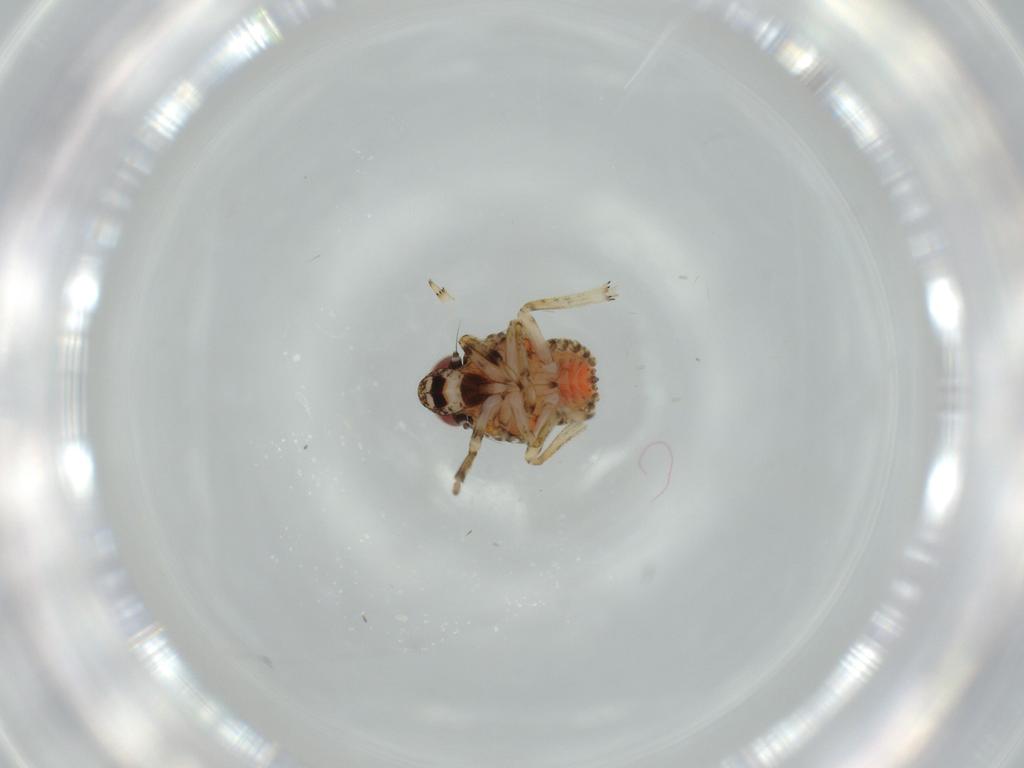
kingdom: Animalia
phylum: Arthropoda
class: Insecta
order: Hemiptera
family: Issidae
